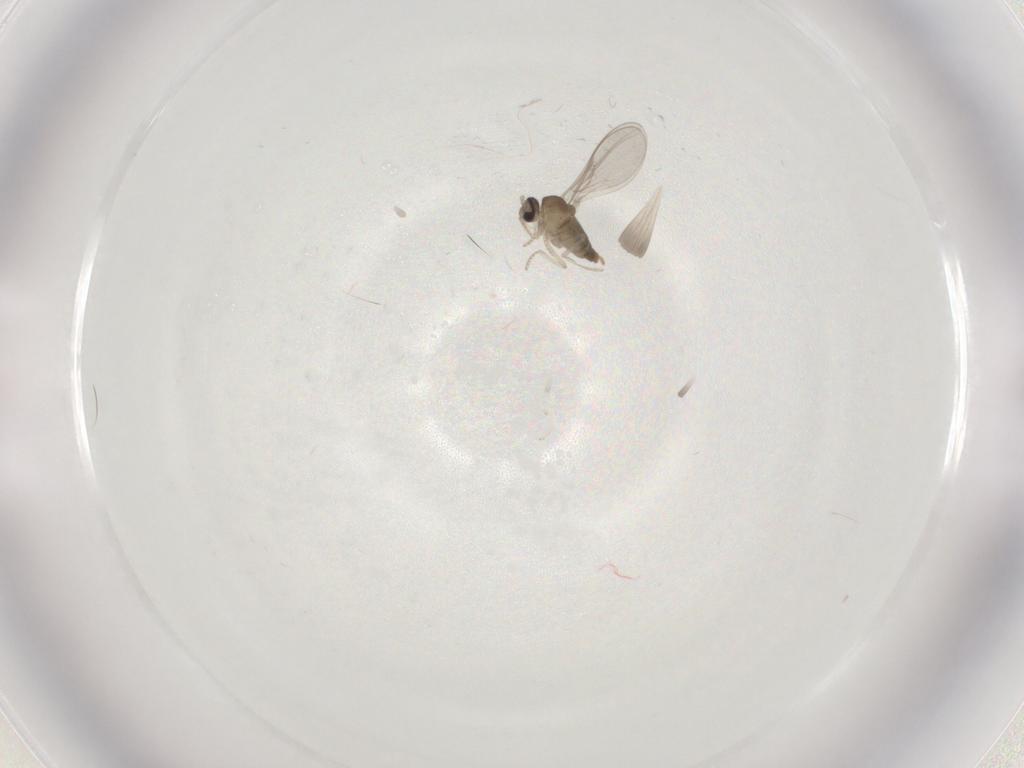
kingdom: Animalia
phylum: Arthropoda
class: Insecta
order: Diptera
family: Cecidomyiidae
